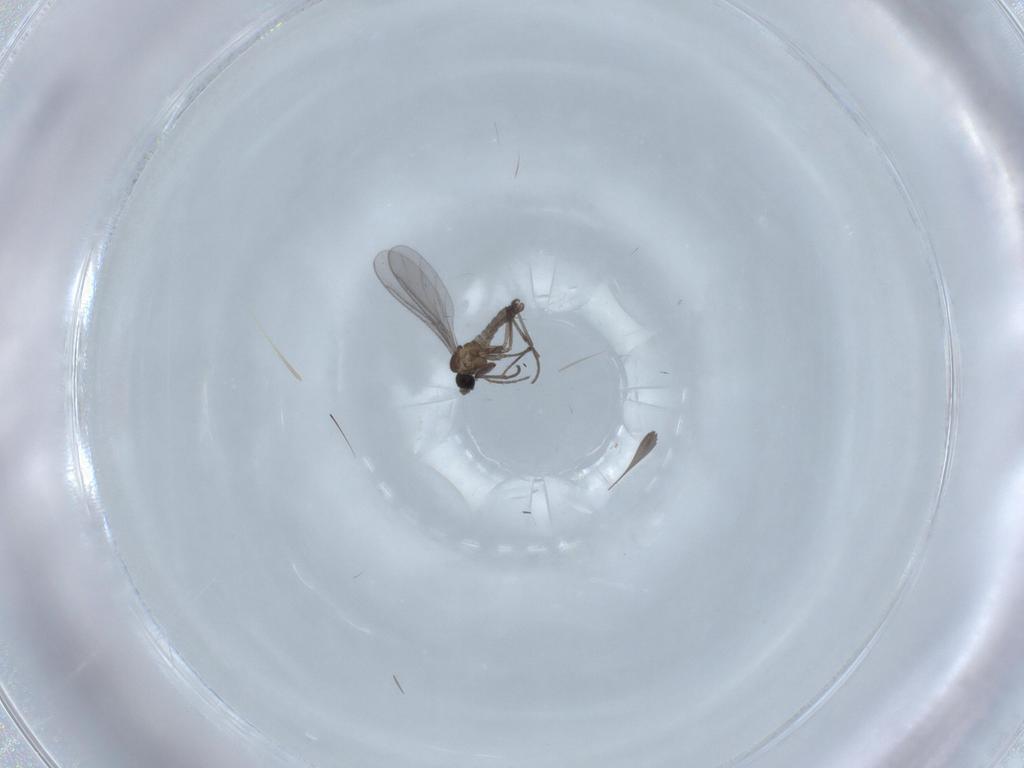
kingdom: Animalia
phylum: Arthropoda
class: Insecta
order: Diptera
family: Sciaridae
